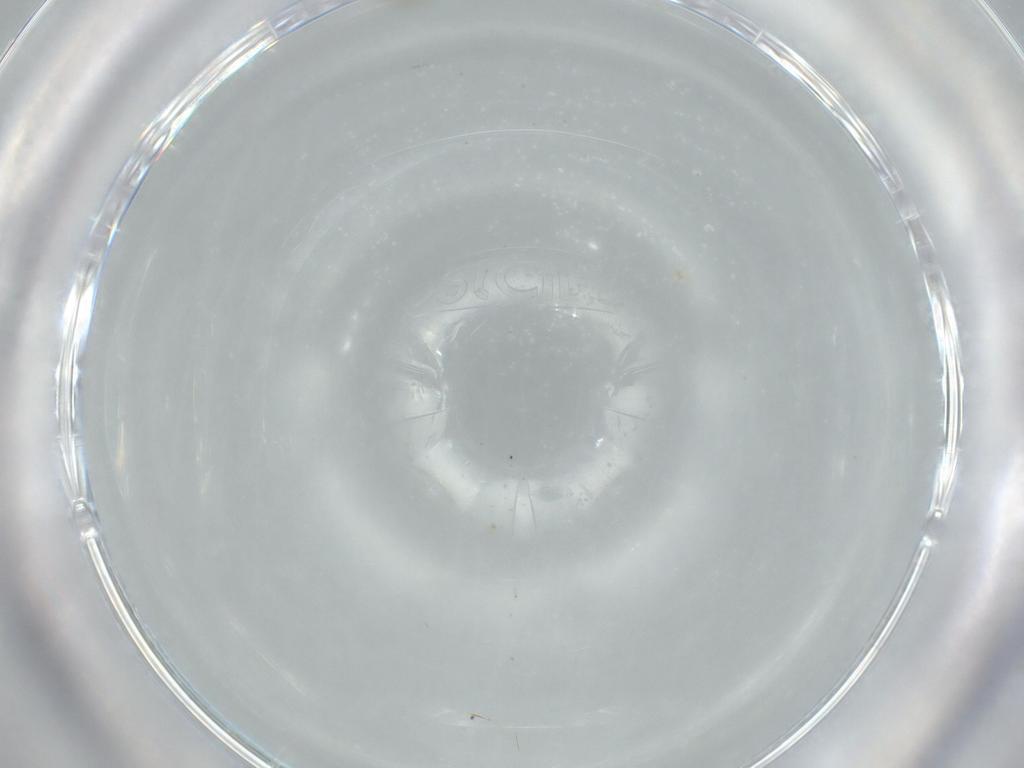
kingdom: Animalia
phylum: Arthropoda
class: Insecta
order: Diptera
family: Cecidomyiidae
